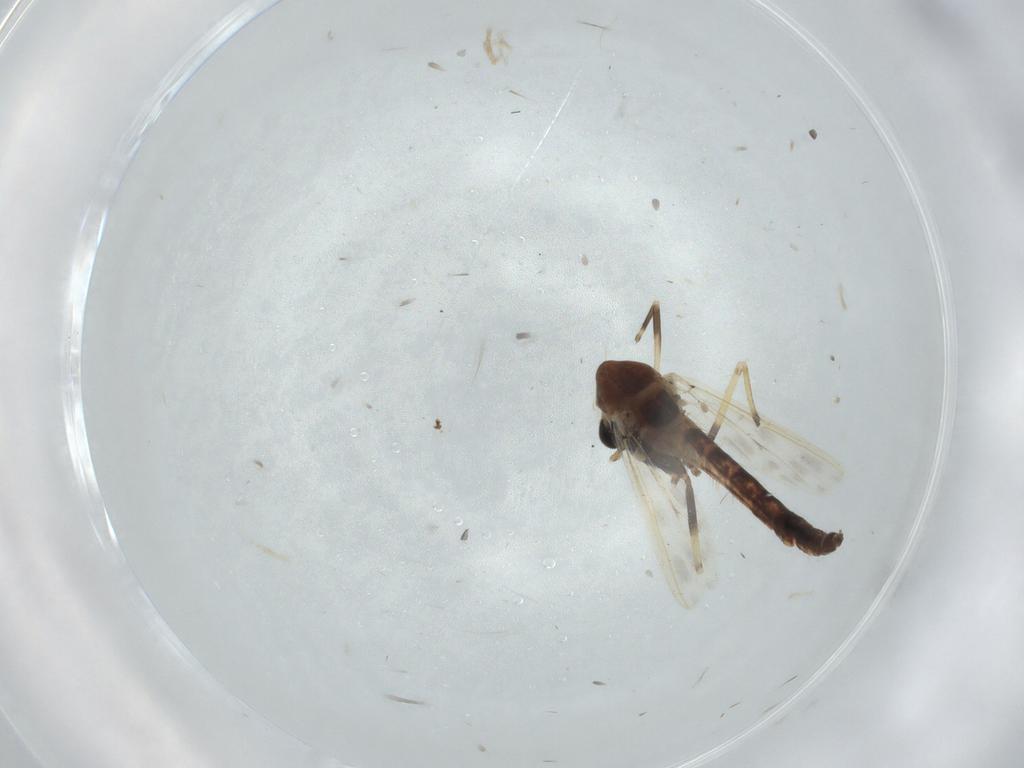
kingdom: Animalia
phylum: Arthropoda
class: Insecta
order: Diptera
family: Chironomidae
